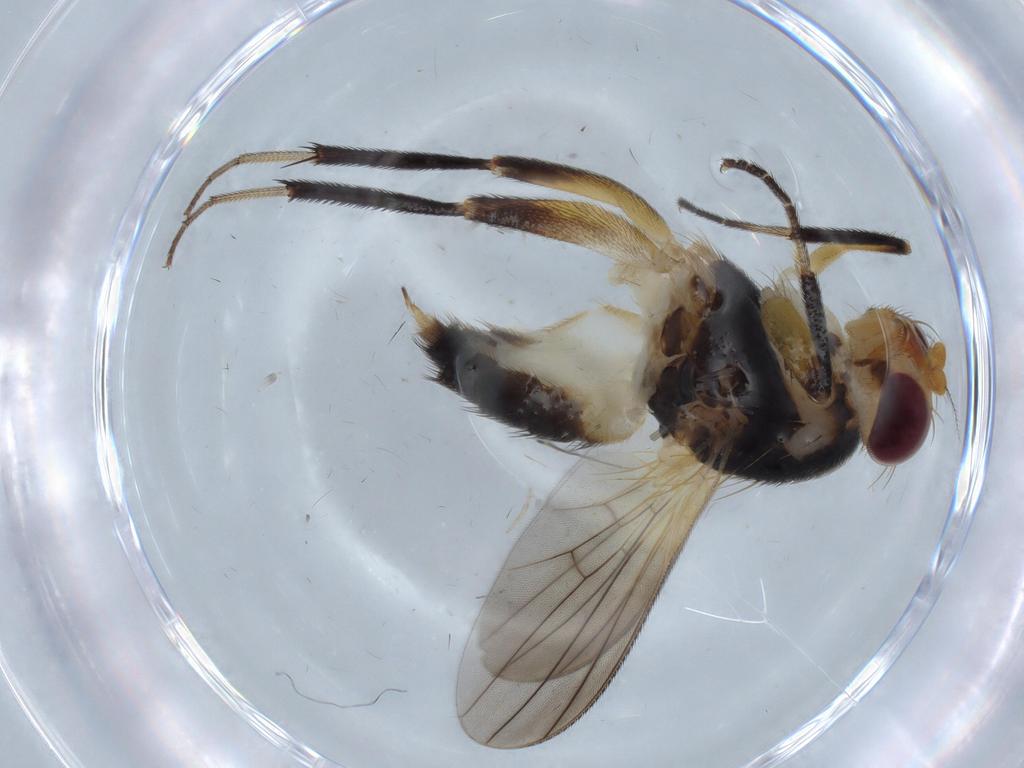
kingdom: Animalia
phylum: Arthropoda
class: Insecta
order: Diptera
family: Clusiidae
